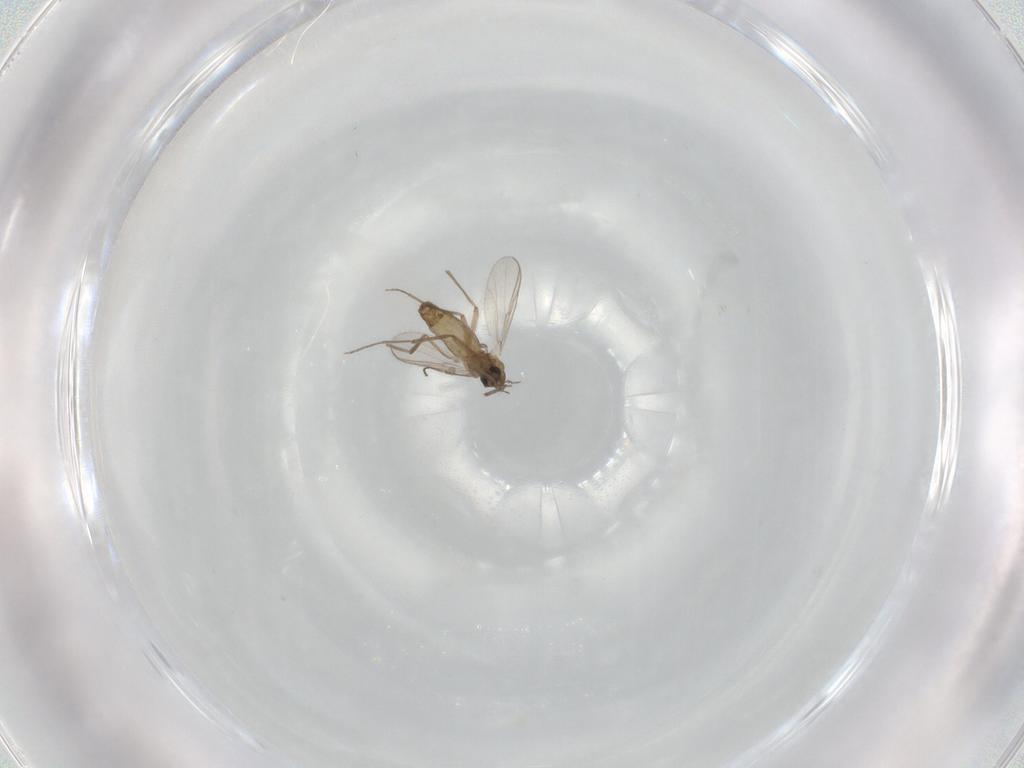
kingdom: Animalia
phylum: Arthropoda
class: Insecta
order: Diptera
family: Chironomidae
